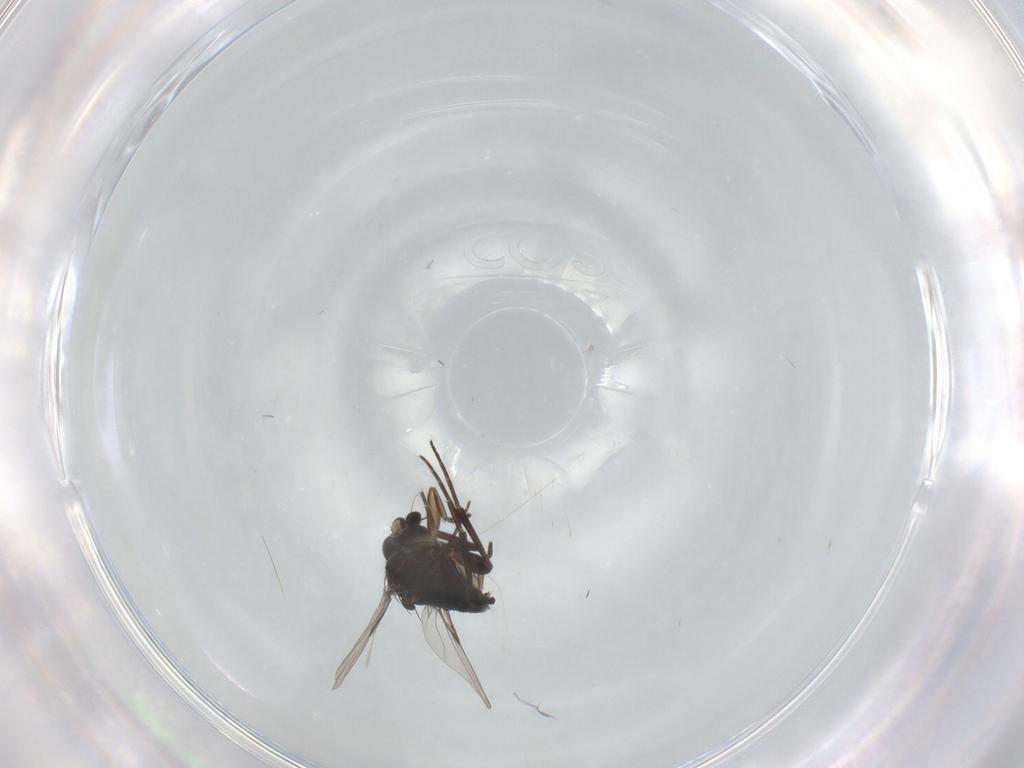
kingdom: Animalia
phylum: Arthropoda
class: Insecta
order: Diptera
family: Phoridae
